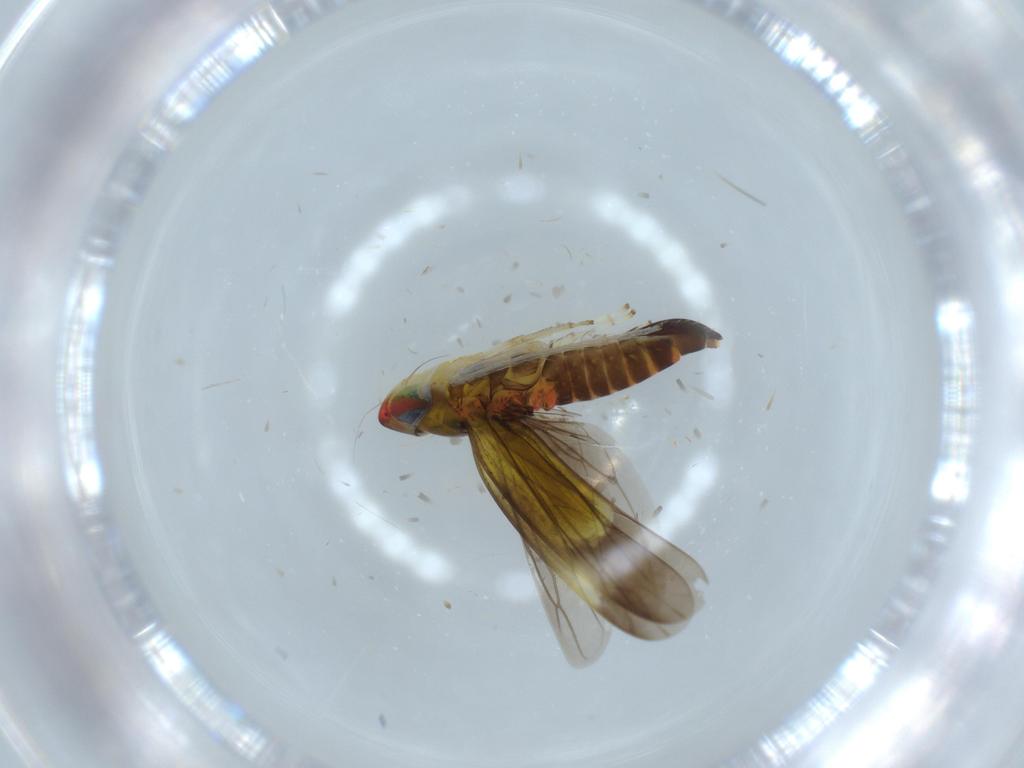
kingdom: Animalia
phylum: Arthropoda
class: Insecta
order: Hemiptera
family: Cicadellidae
